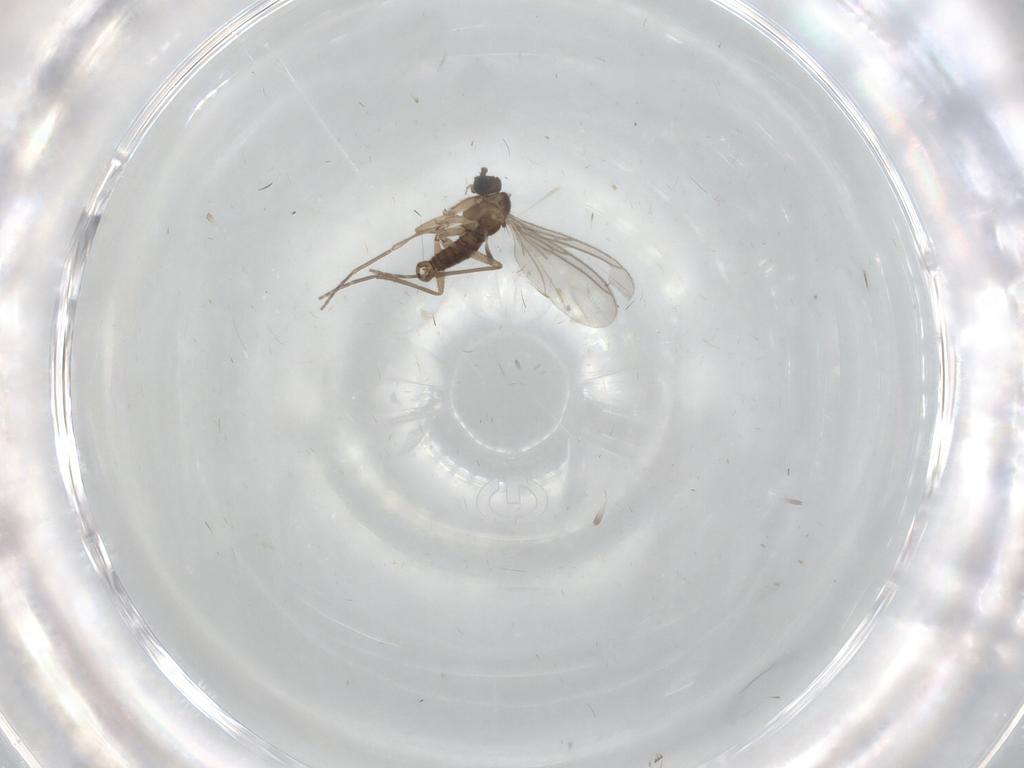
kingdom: Animalia
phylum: Arthropoda
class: Insecta
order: Diptera
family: Sciaridae
